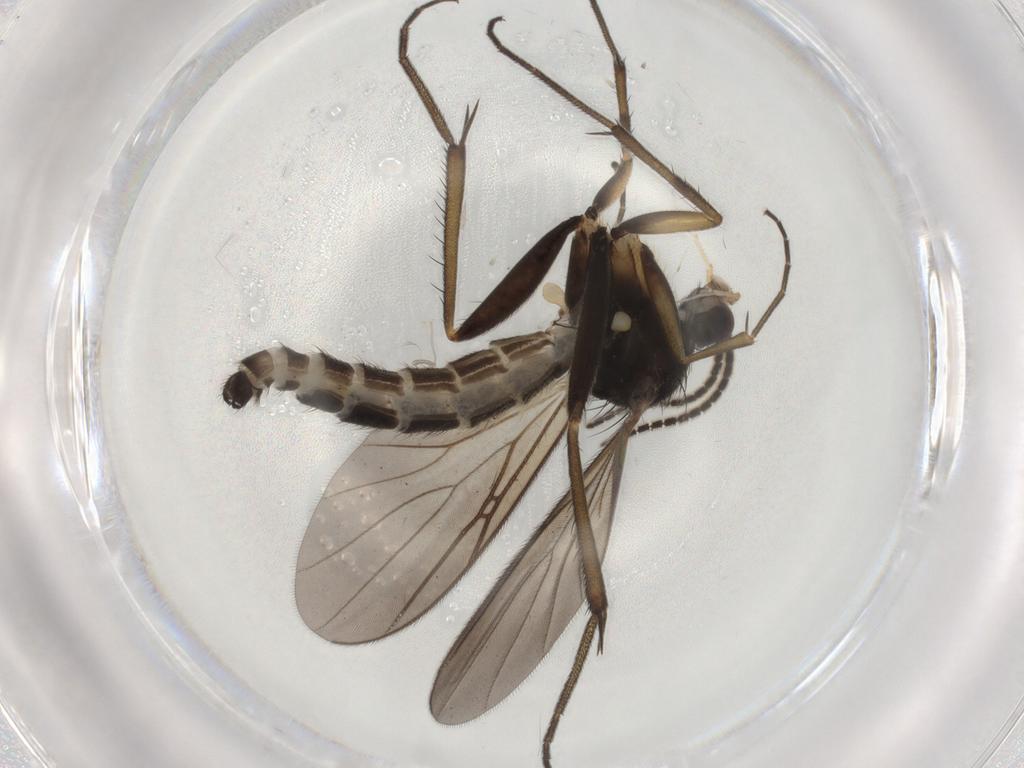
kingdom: Animalia
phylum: Arthropoda
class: Insecta
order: Diptera
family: Mycetophilidae
